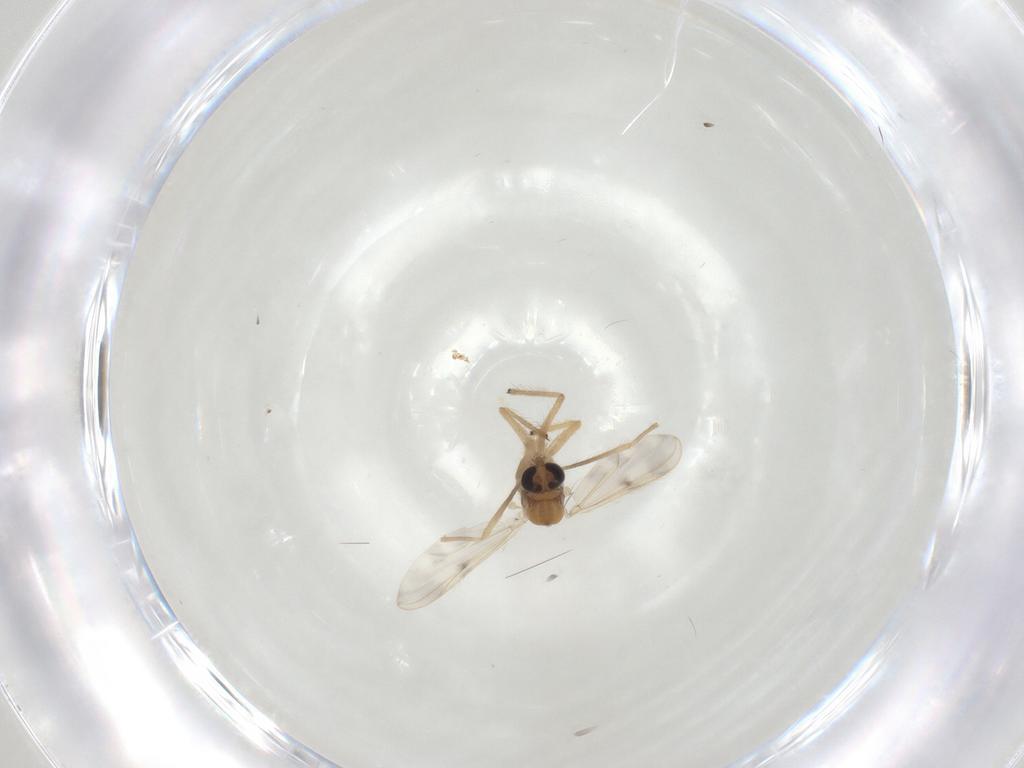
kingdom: Animalia
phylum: Arthropoda
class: Insecta
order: Diptera
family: Chironomidae
